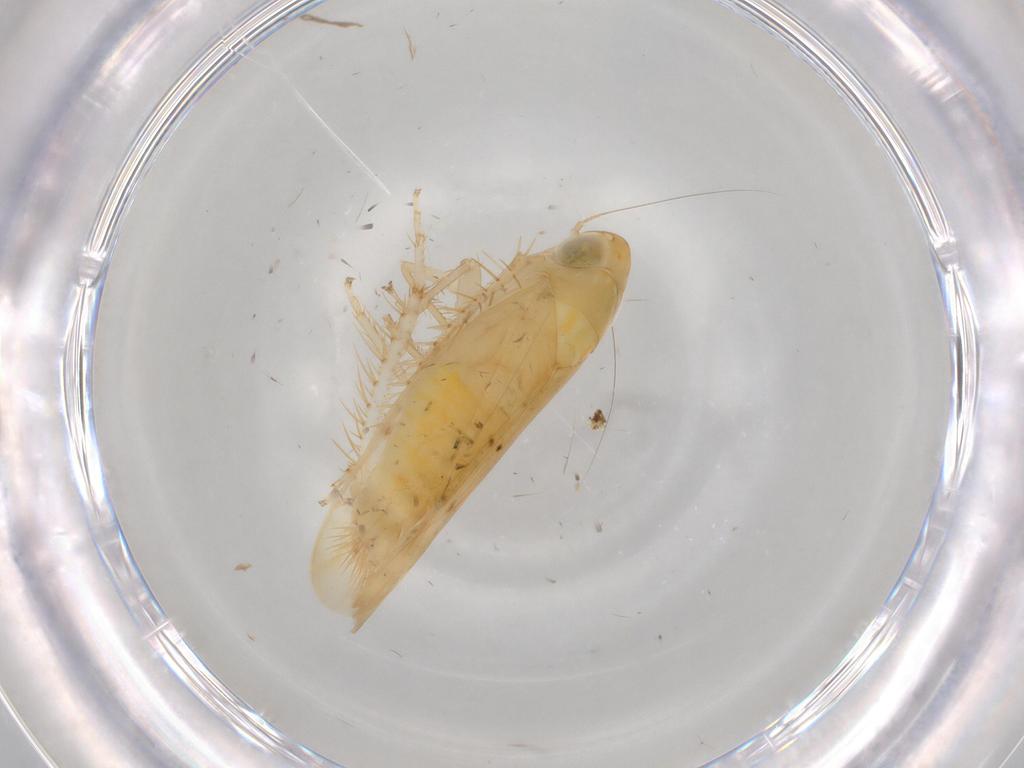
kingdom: Animalia
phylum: Arthropoda
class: Insecta
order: Hemiptera
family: Cicadellidae
